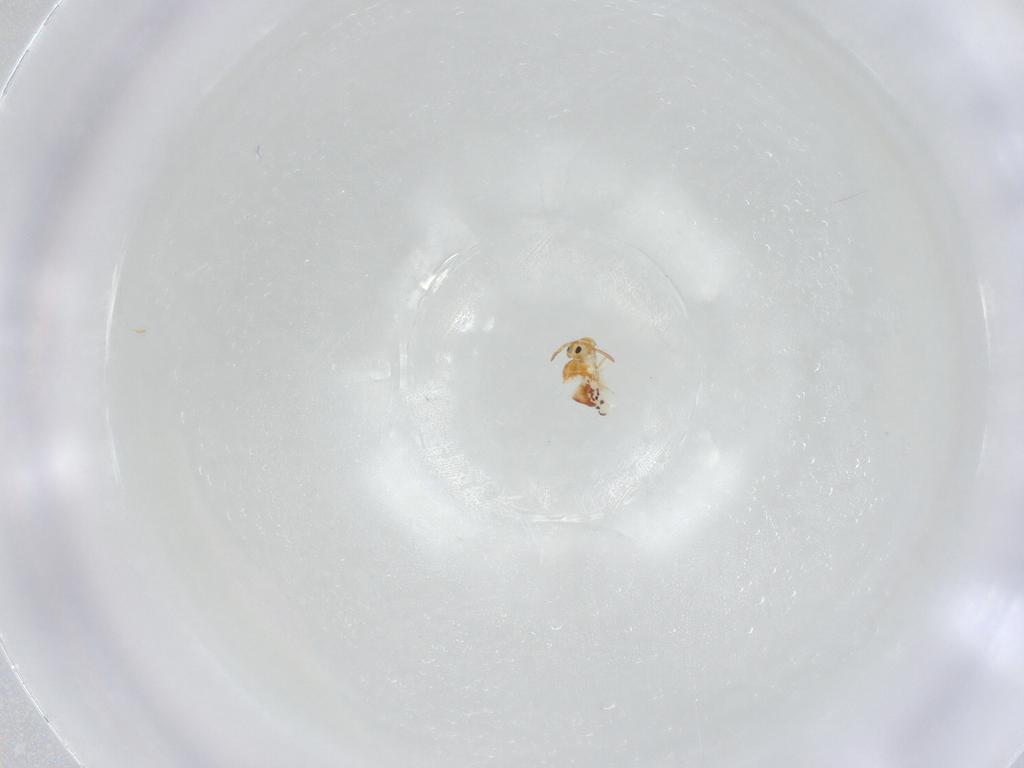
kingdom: Animalia
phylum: Arthropoda
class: Collembola
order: Symphypleona
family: Bourletiellidae
